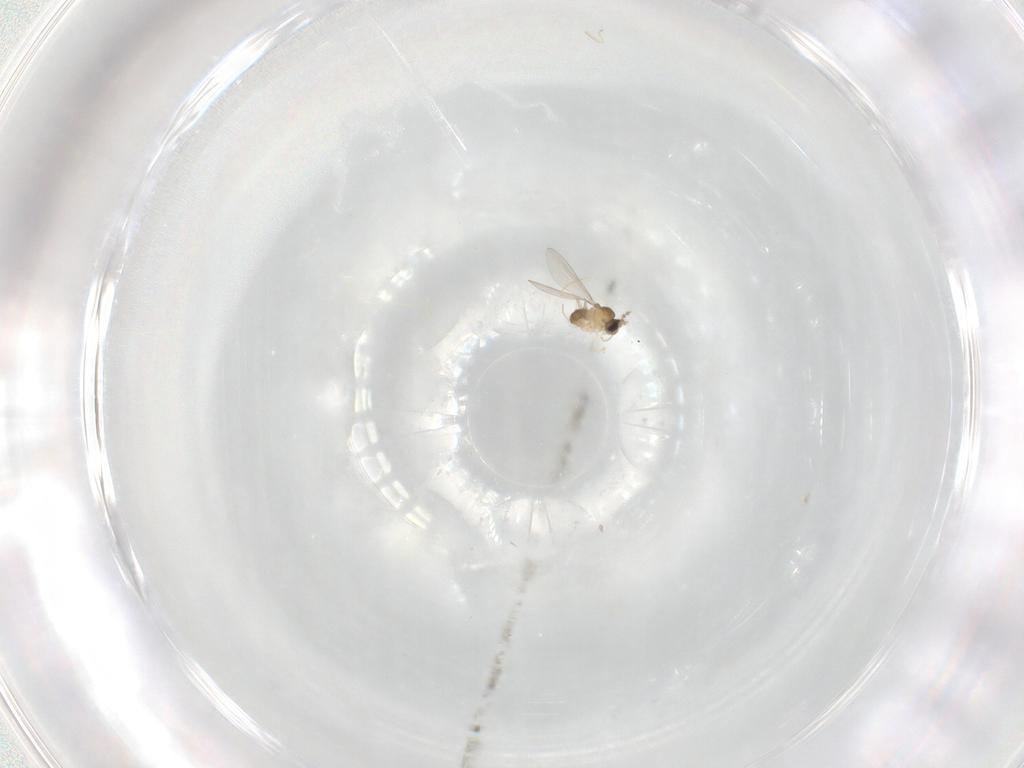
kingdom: Animalia
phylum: Arthropoda
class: Insecta
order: Diptera
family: Cecidomyiidae
